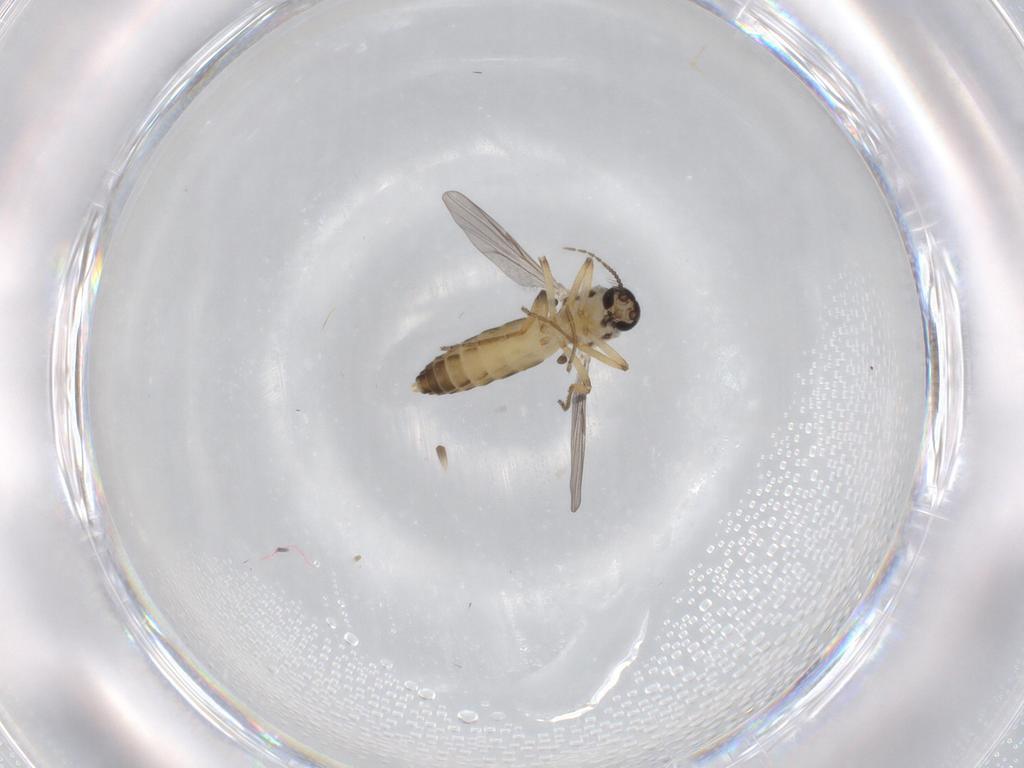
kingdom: Animalia
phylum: Arthropoda
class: Insecta
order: Diptera
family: Ceratopogonidae
